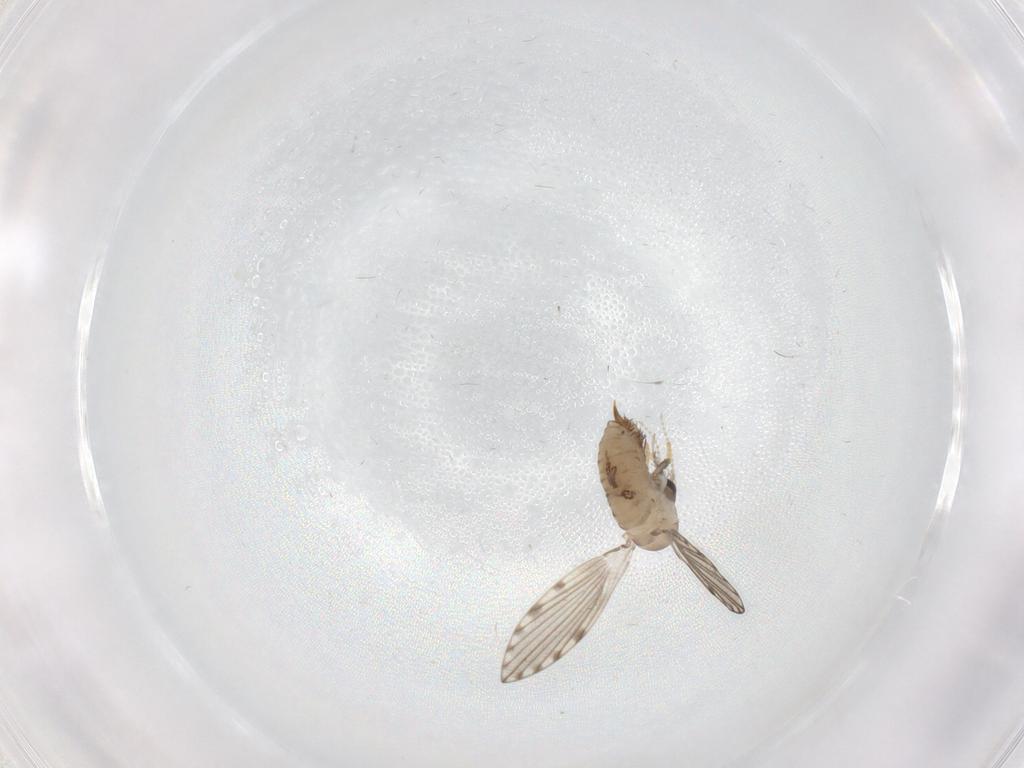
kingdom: Animalia
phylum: Arthropoda
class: Insecta
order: Diptera
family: Psychodidae
